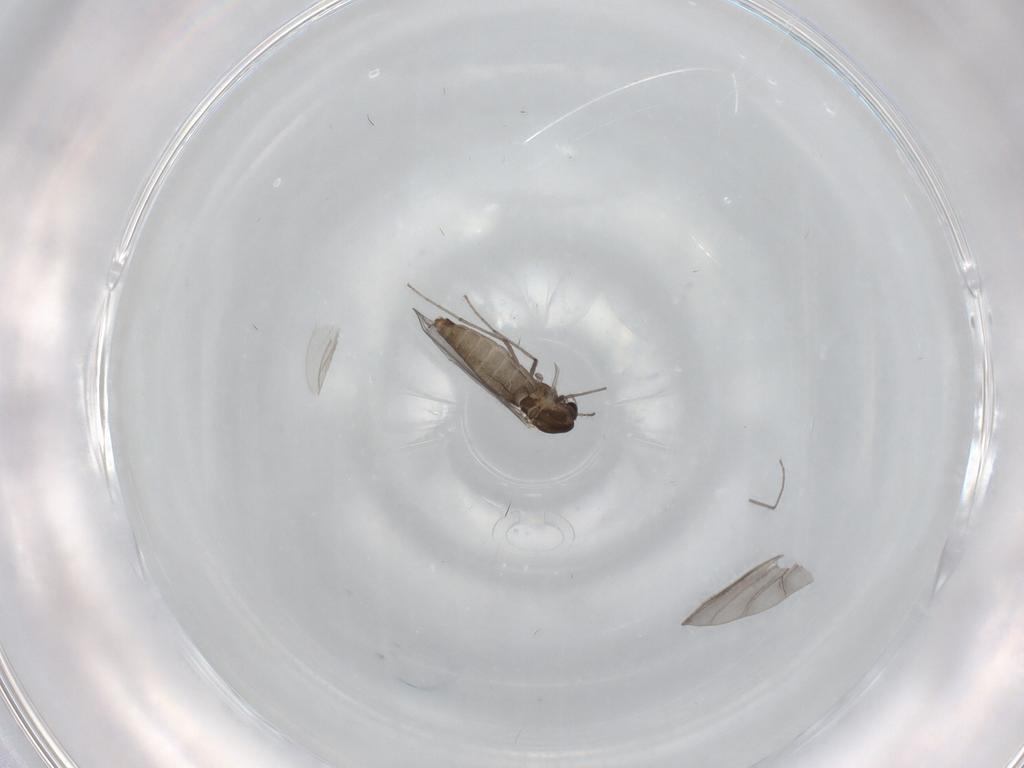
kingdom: Animalia
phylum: Arthropoda
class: Insecta
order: Diptera
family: Chironomidae
